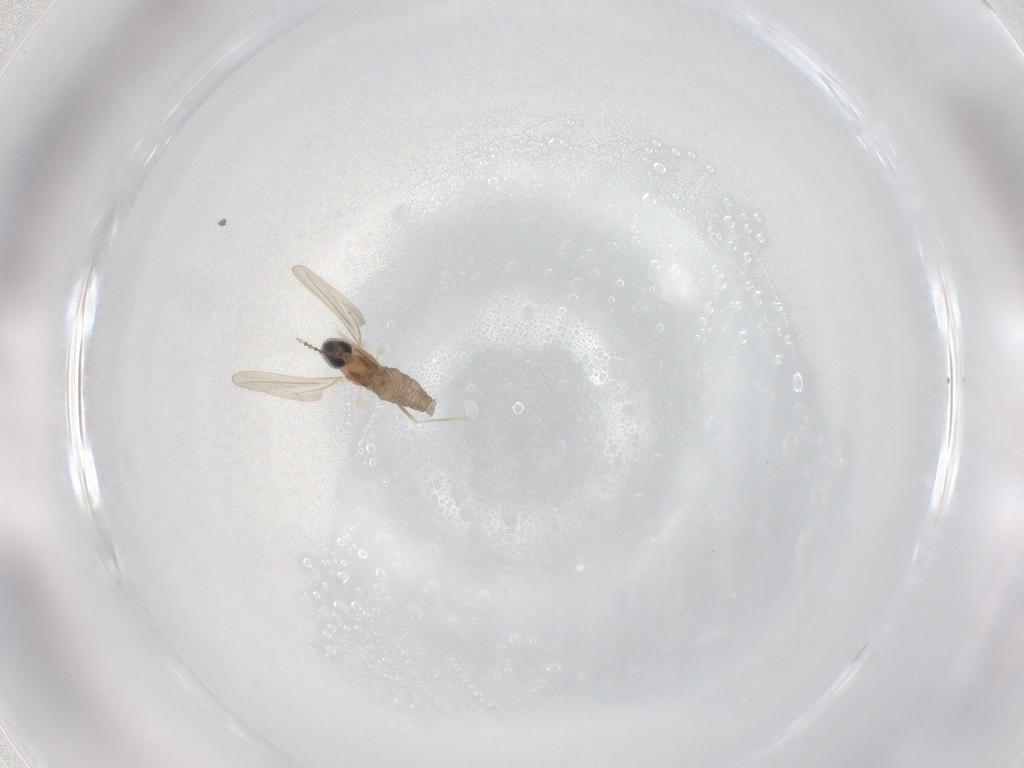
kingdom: Animalia
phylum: Arthropoda
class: Insecta
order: Diptera
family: Cecidomyiidae
